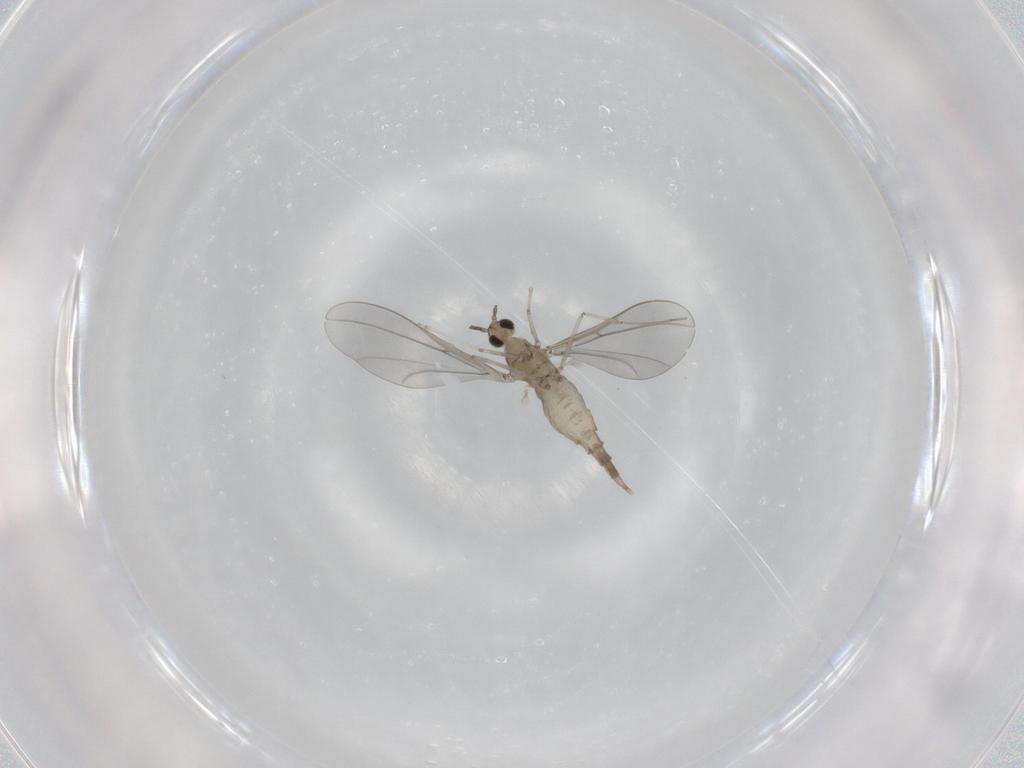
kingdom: Animalia
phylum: Arthropoda
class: Insecta
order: Diptera
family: Cecidomyiidae
